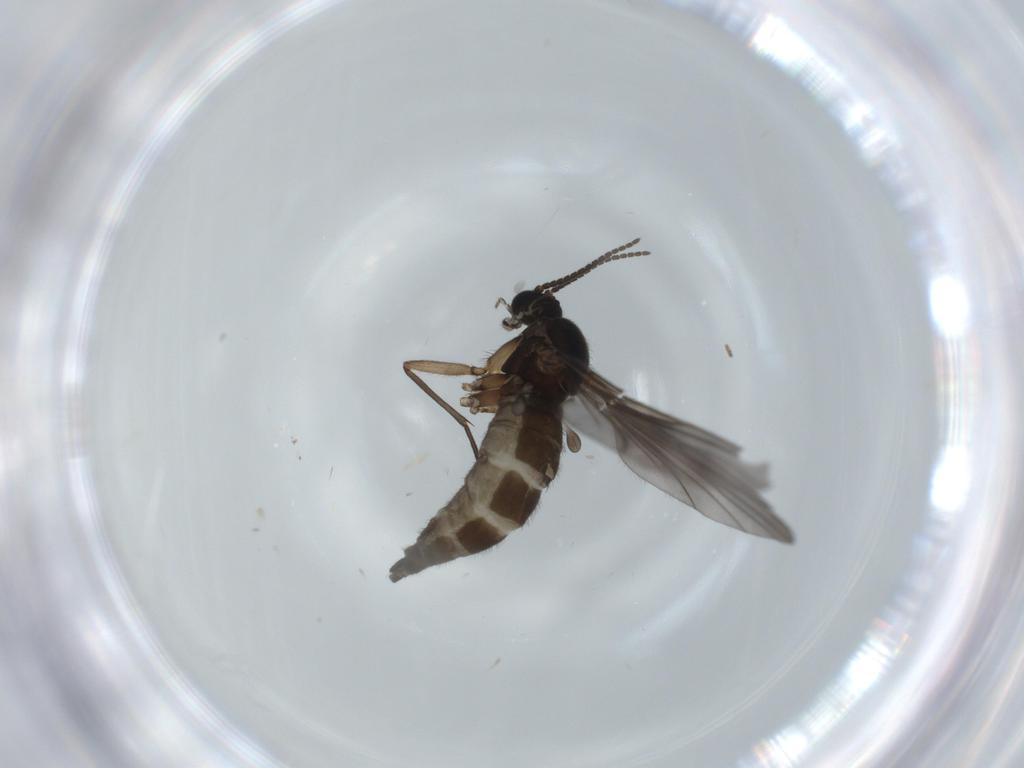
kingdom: Animalia
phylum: Arthropoda
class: Insecta
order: Diptera
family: Sciaridae
